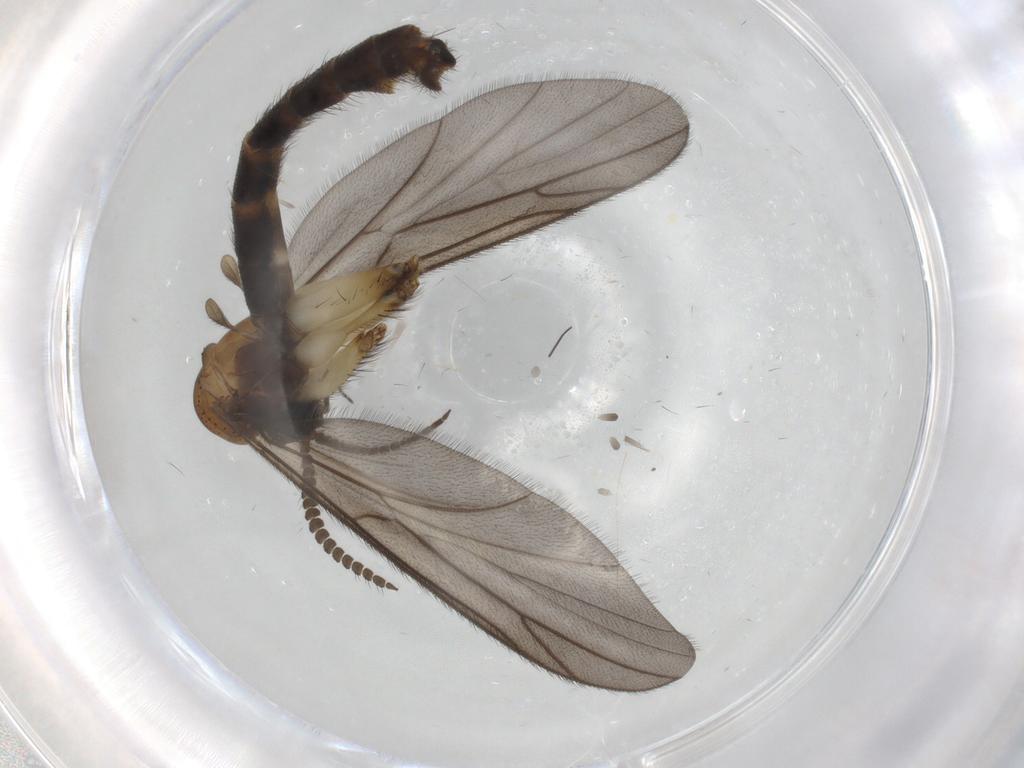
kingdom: Animalia
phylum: Arthropoda
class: Insecta
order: Diptera
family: Cecidomyiidae
